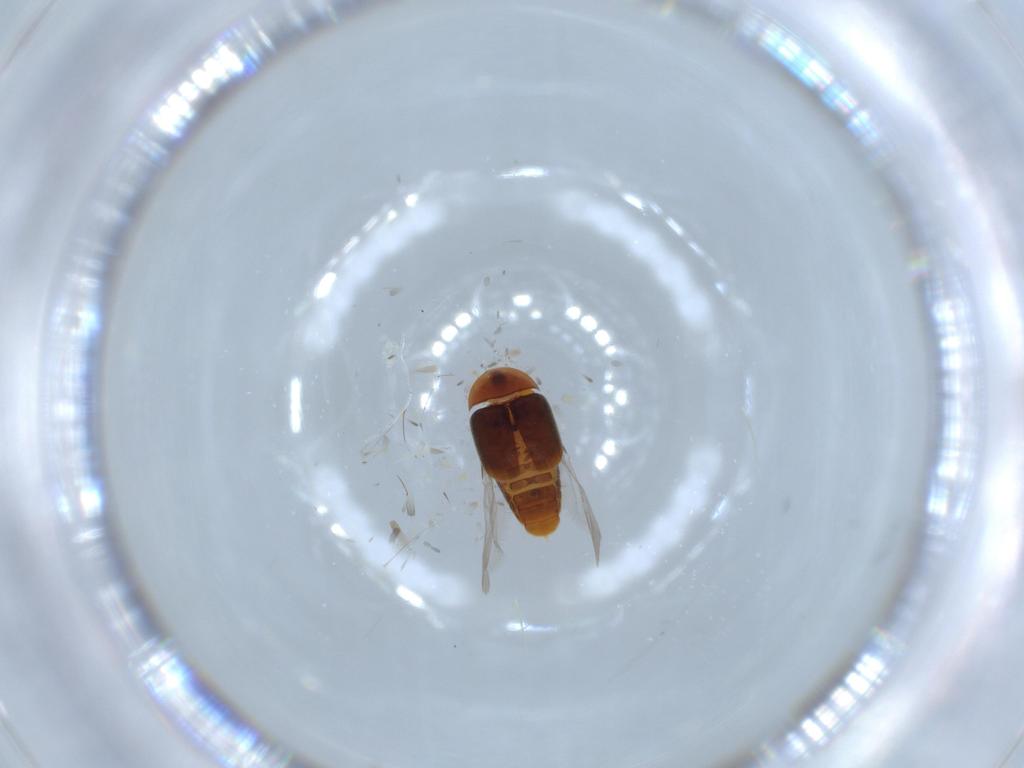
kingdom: Animalia
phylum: Arthropoda
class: Insecta
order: Coleoptera
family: Corylophidae
